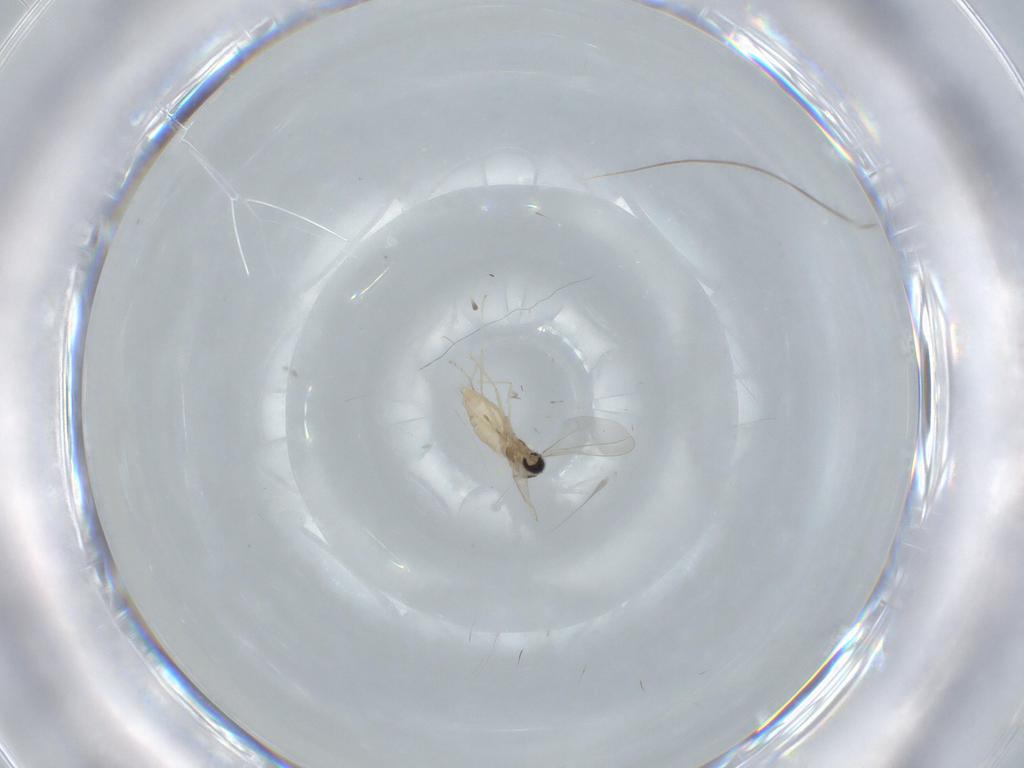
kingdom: Animalia
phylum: Arthropoda
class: Insecta
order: Diptera
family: Cecidomyiidae
